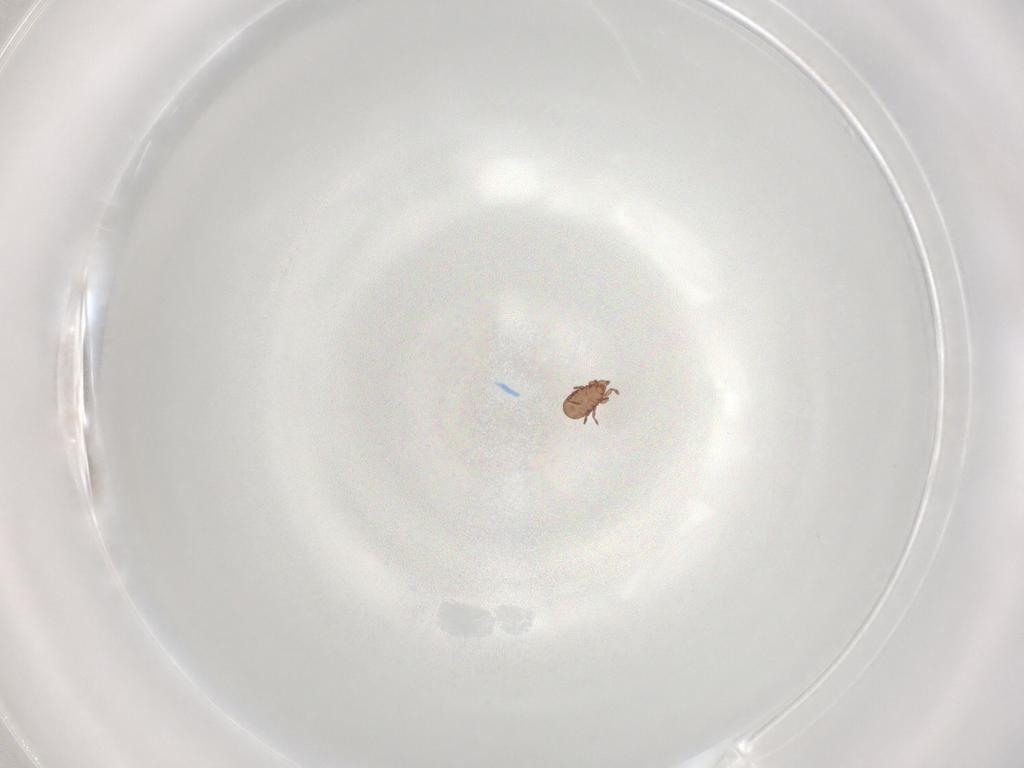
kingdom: Animalia
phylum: Arthropoda
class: Arachnida
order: Sarcoptiformes
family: Eremaeidae
